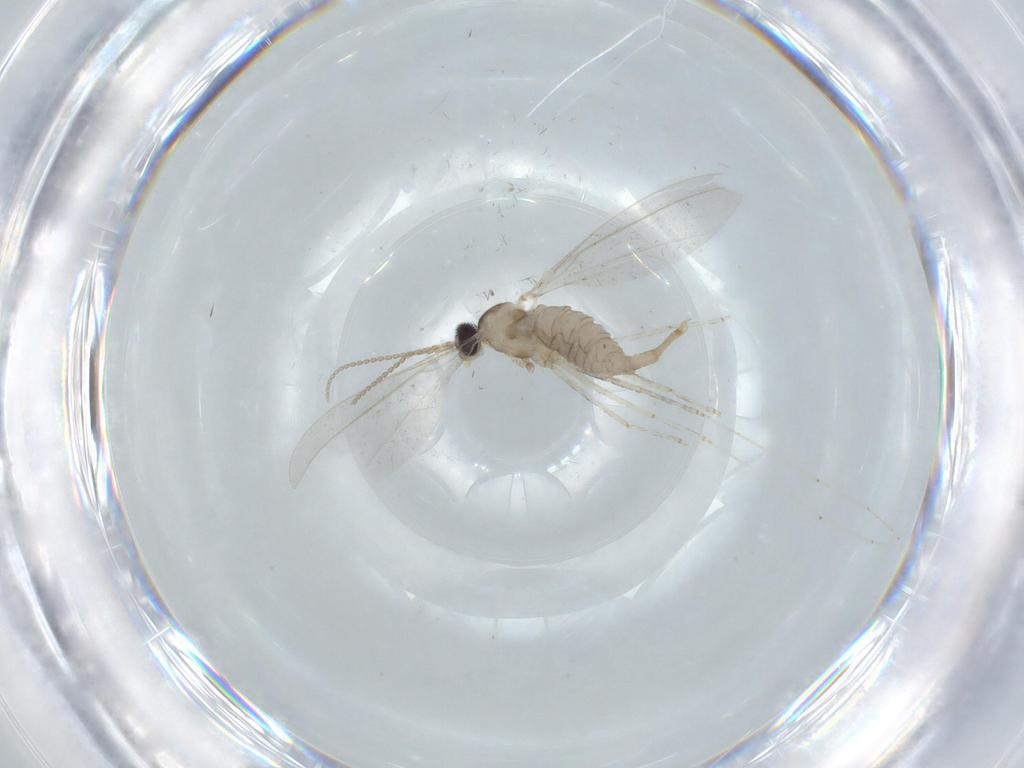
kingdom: Animalia
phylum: Arthropoda
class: Insecta
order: Diptera
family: Cecidomyiidae
